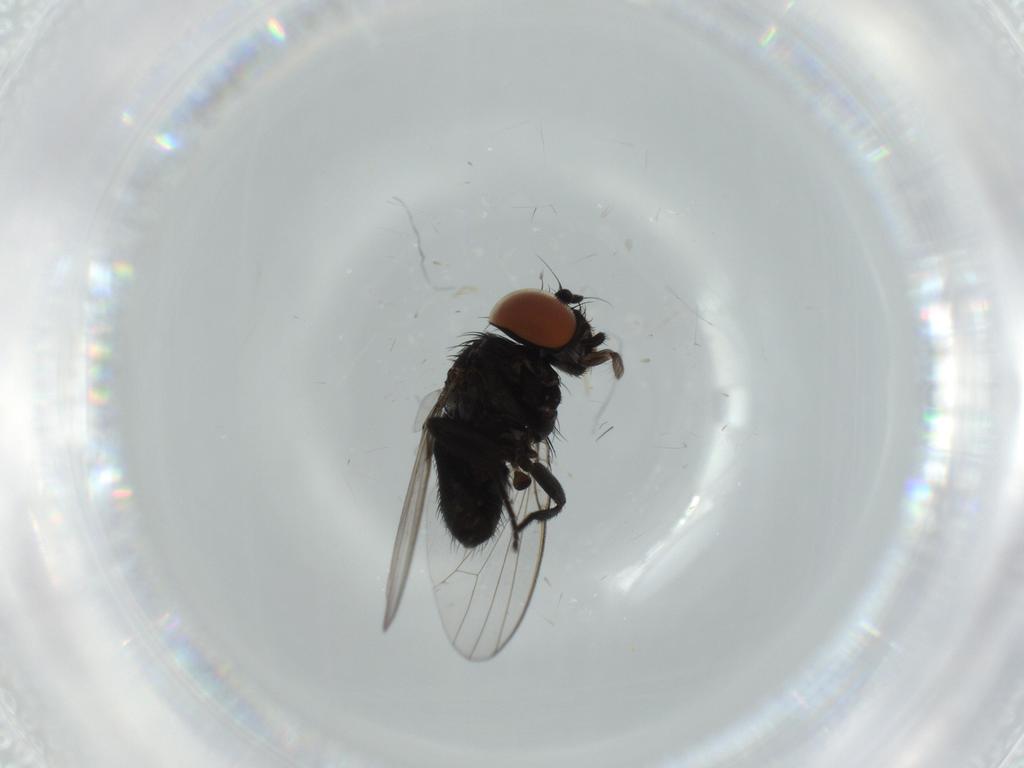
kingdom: Animalia
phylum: Arthropoda
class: Insecta
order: Diptera
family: Milichiidae
